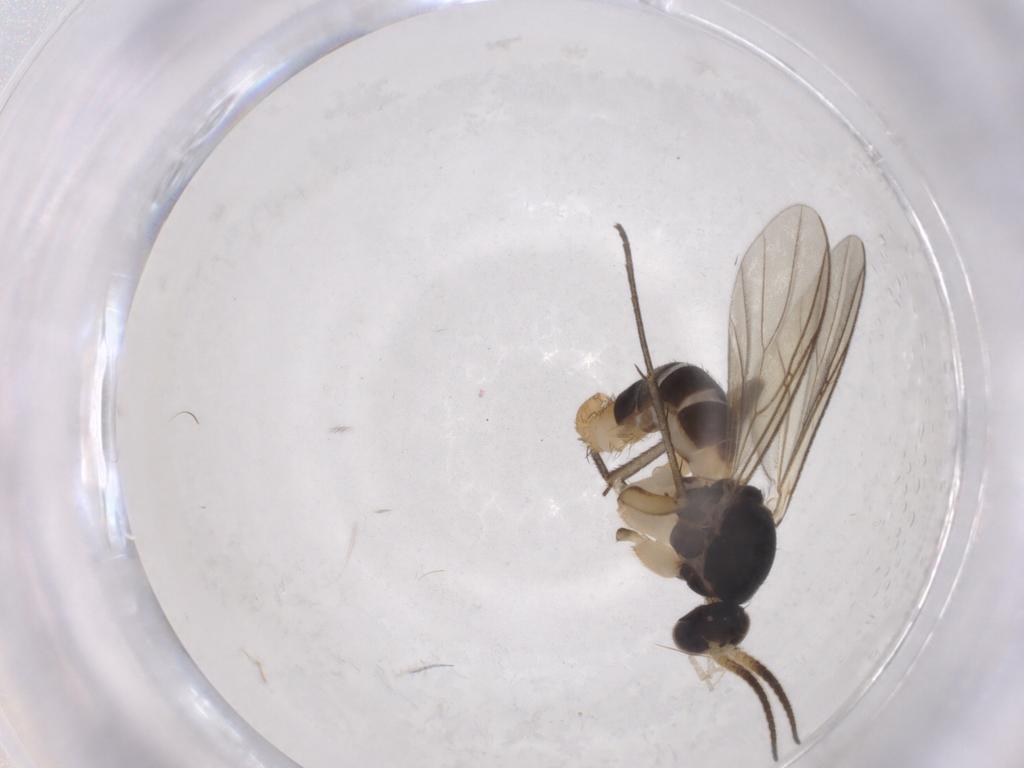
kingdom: Animalia
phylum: Arthropoda
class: Insecta
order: Diptera
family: Mycetophilidae
